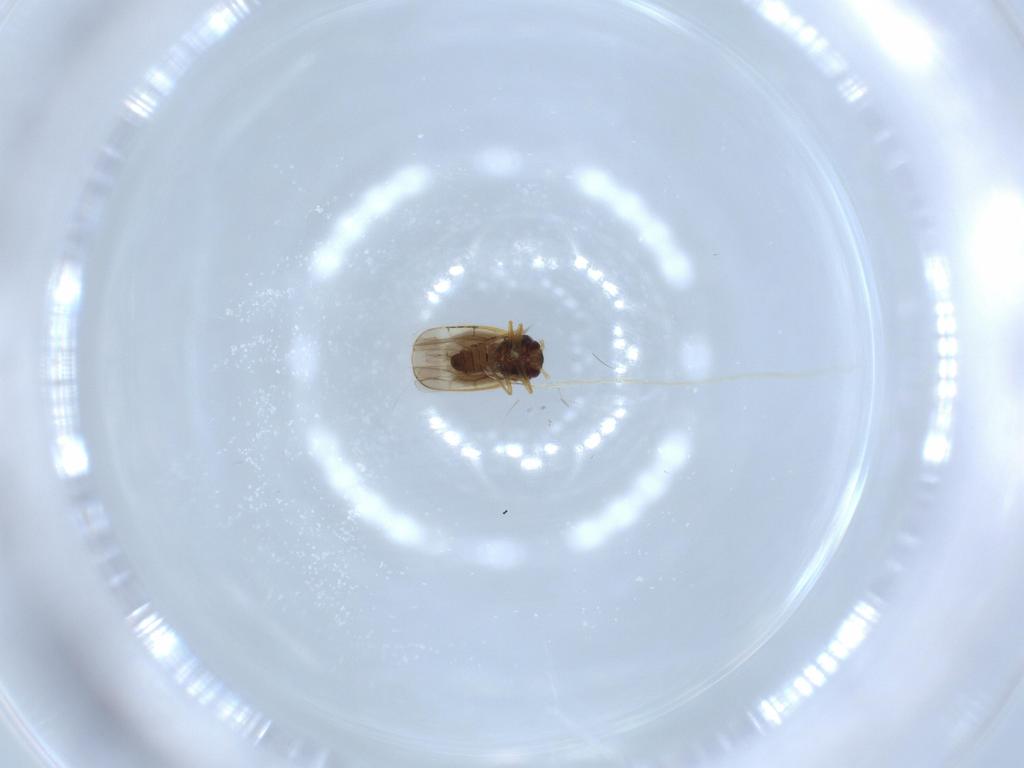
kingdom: Animalia
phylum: Arthropoda
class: Insecta
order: Hemiptera
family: Schizopteridae
